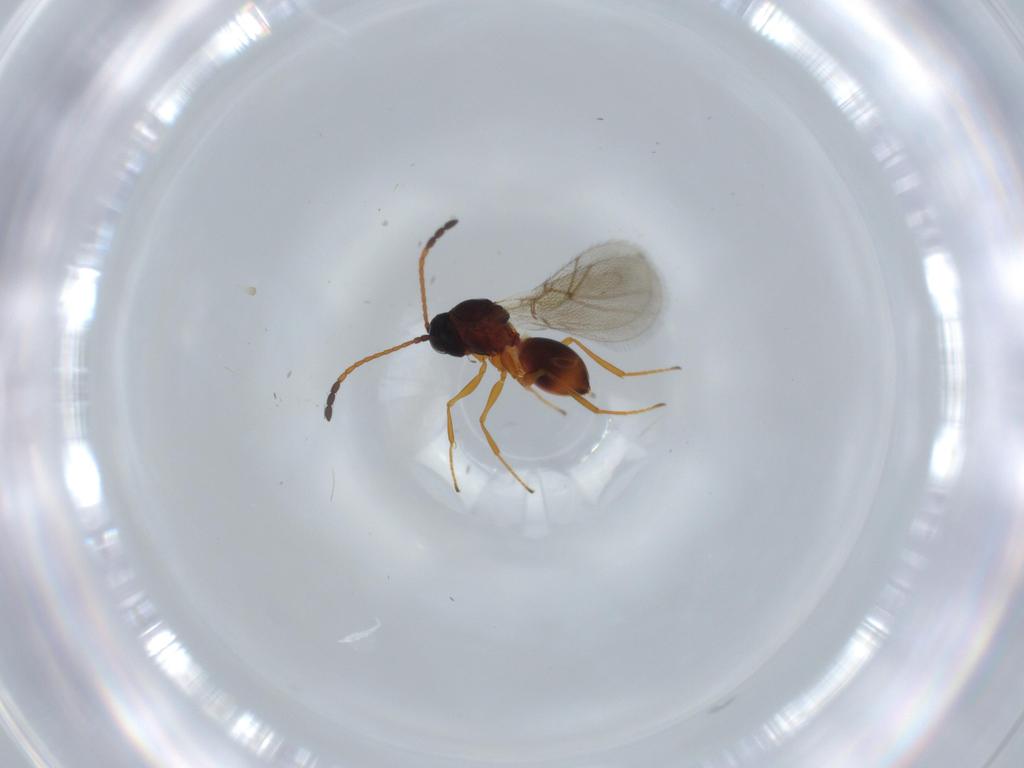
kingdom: Animalia
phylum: Arthropoda
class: Insecta
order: Hymenoptera
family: Figitidae
